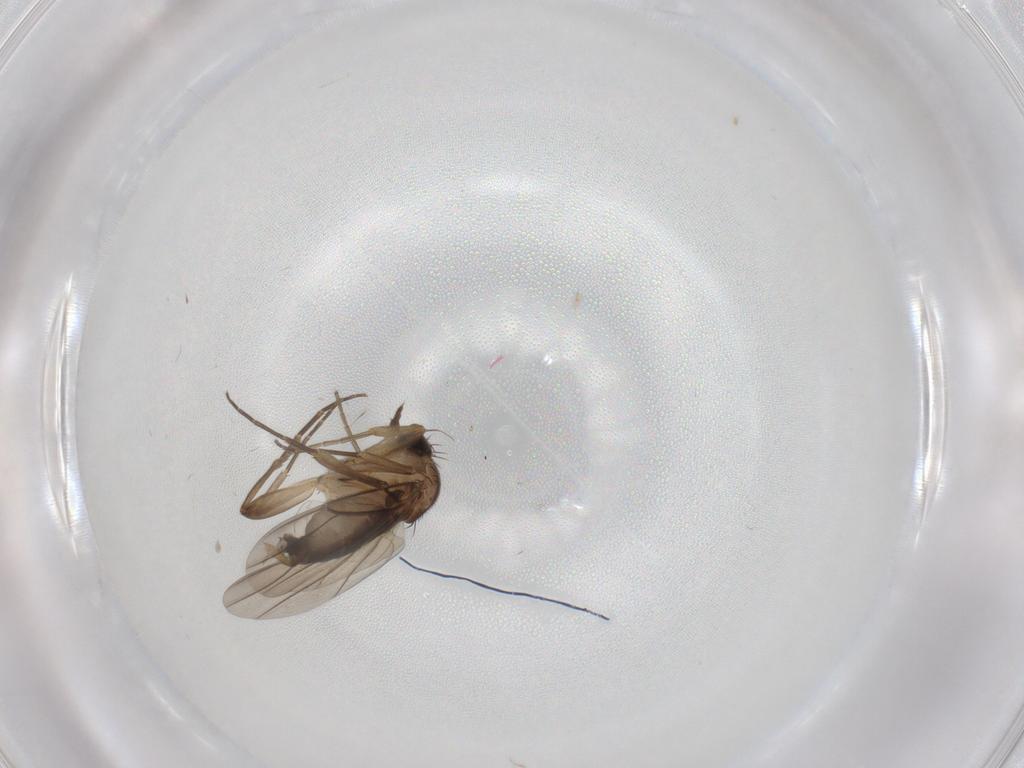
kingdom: Animalia
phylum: Arthropoda
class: Insecta
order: Diptera
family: Phoridae
